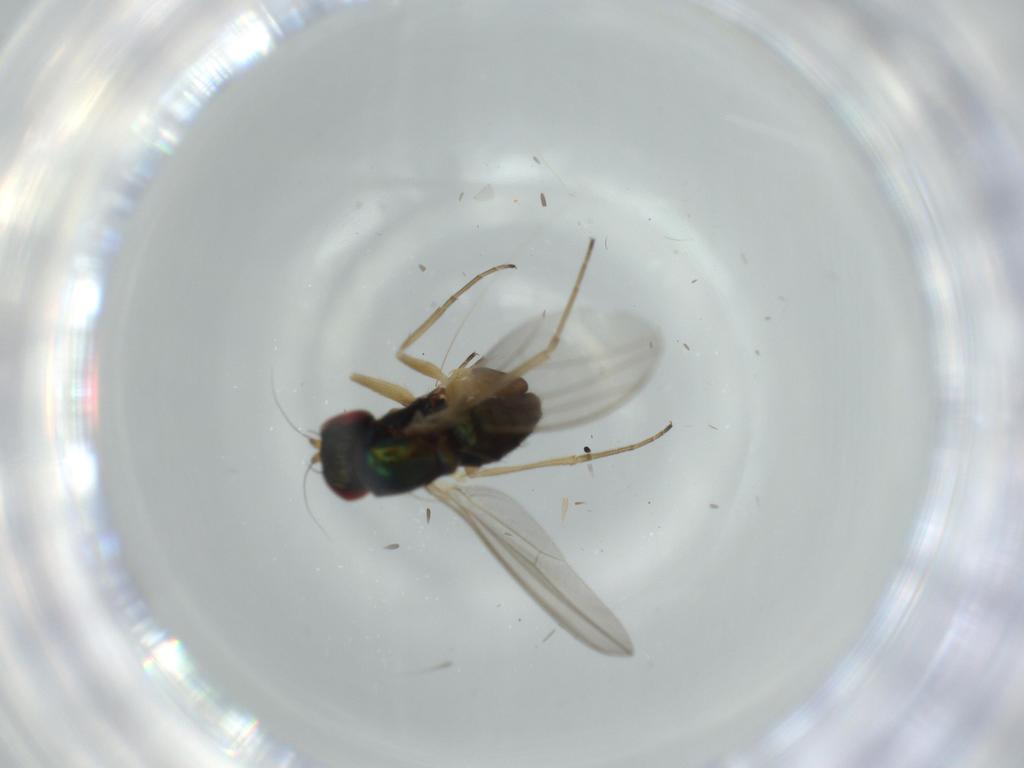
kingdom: Animalia
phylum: Arthropoda
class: Insecta
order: Diptera
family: Dolichopodidae
